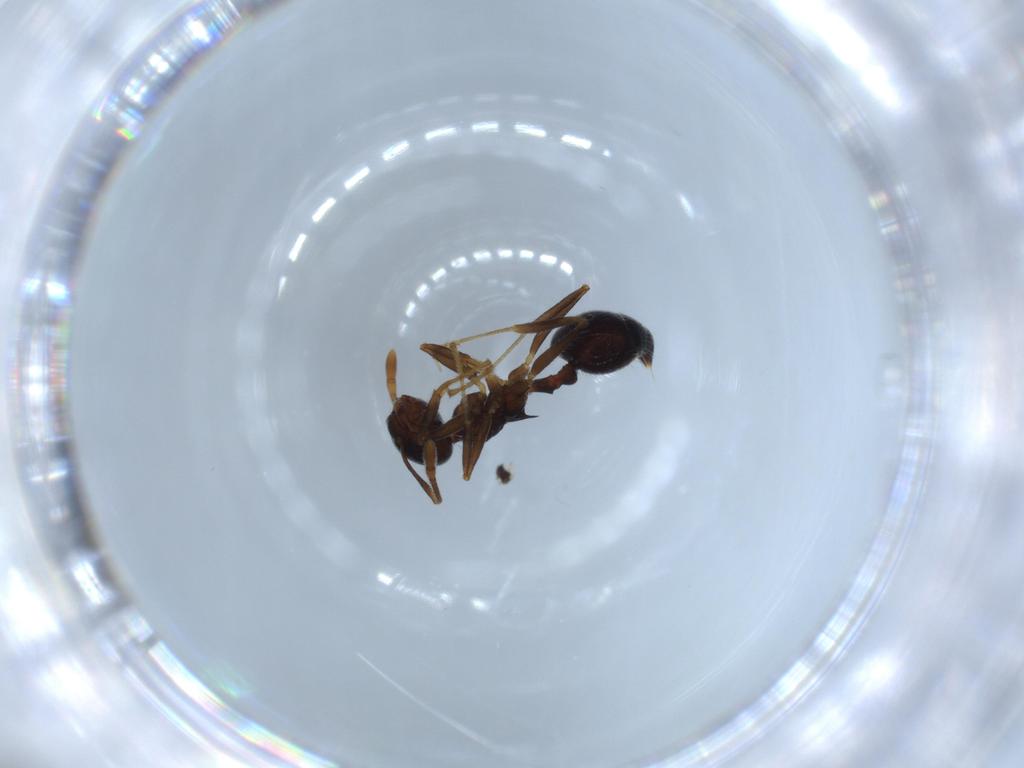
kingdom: Animalia
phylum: Arthropoda
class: Insecta
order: Hymenoptera
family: Formicidae
